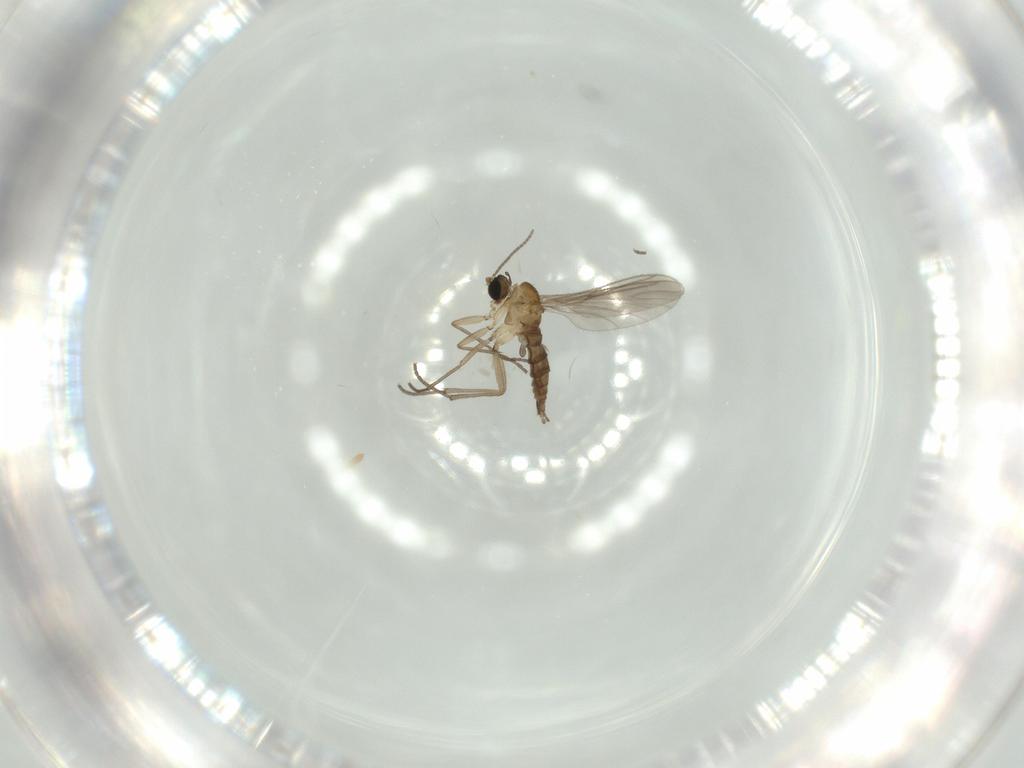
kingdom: Animalia
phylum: Arthropoda
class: Insecta
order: Diptera
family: Sciaridae
